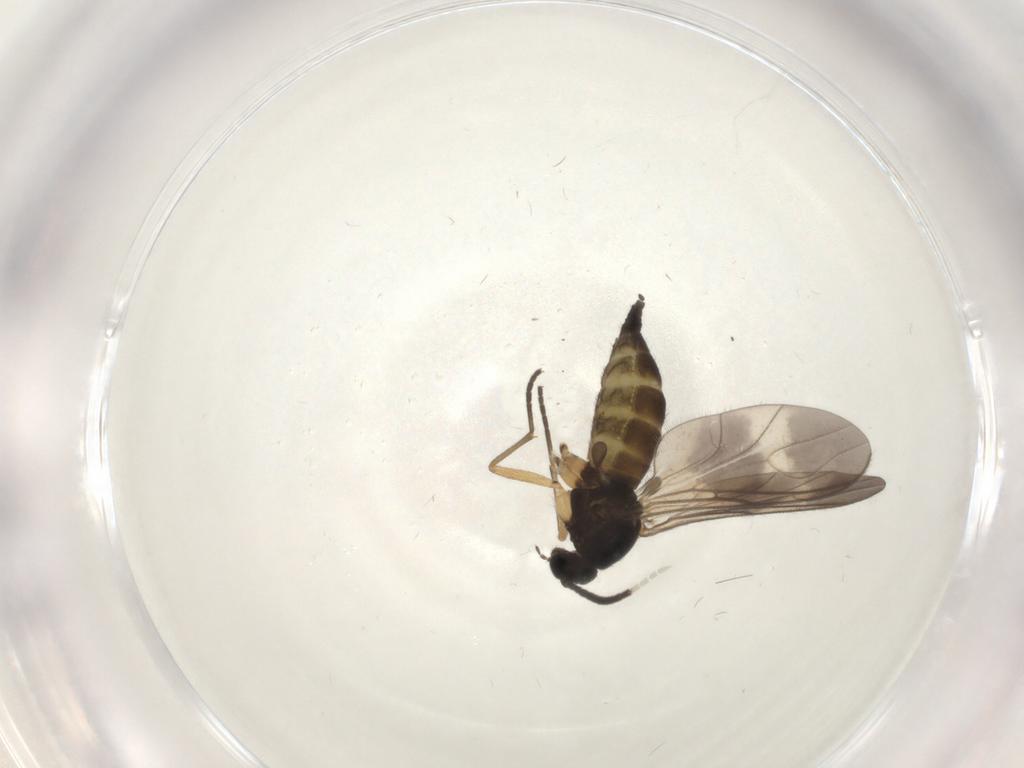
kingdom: Animalia
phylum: Arthropoda
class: Insecta
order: Diptera
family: Sciaridae
